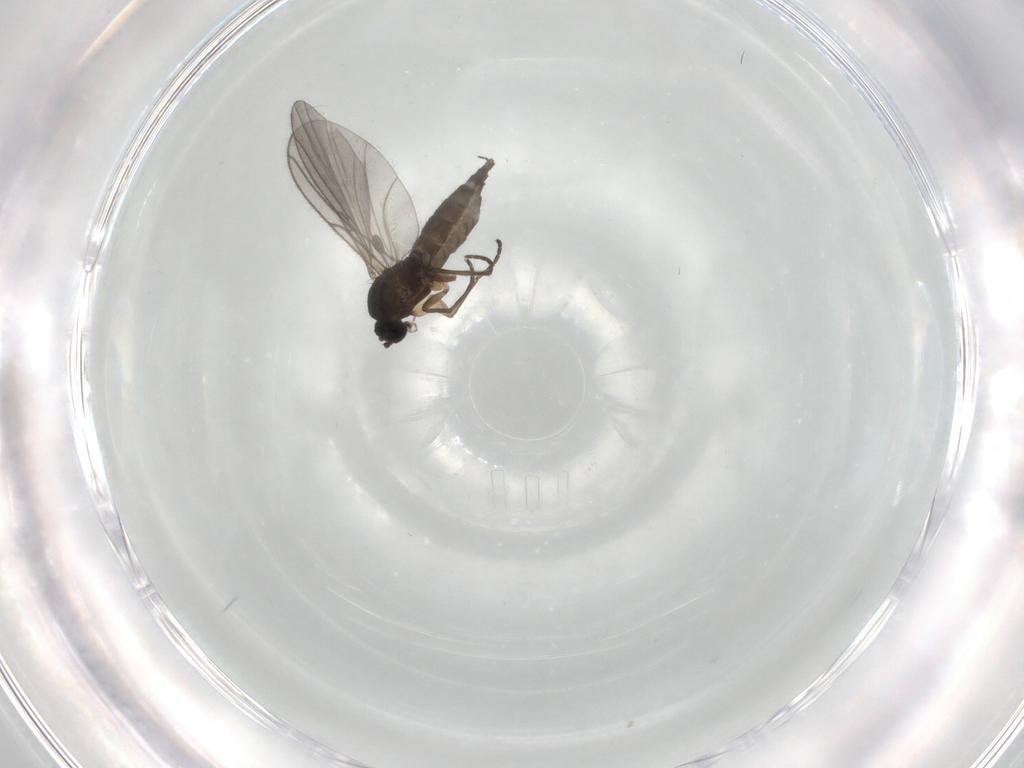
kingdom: Animalia
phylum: Arthropoda
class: Insecta
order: Diptera
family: Sciaridae
